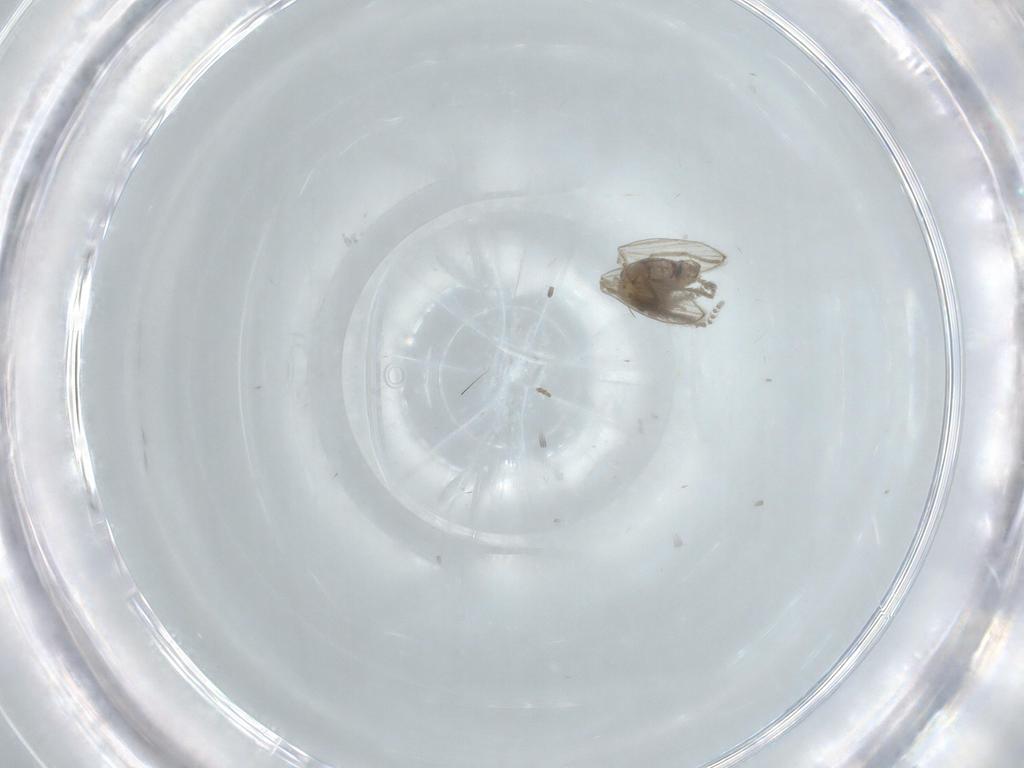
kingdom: Animalia
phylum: Arthropoda
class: Insecta
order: Diptera
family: Psychodidae
